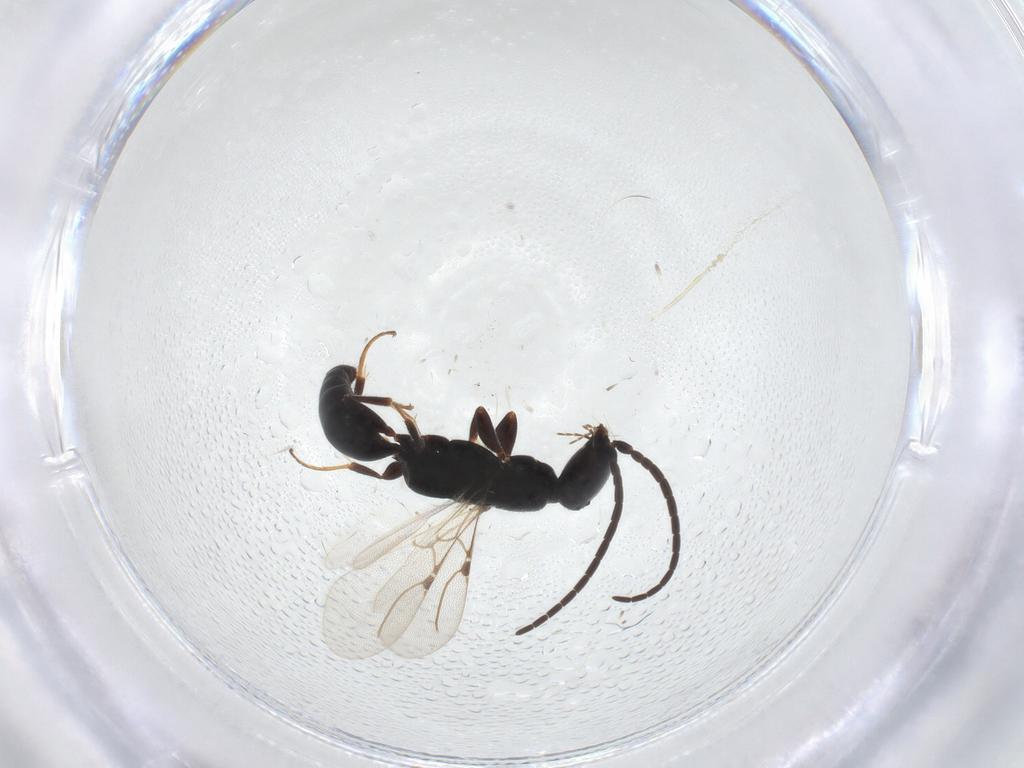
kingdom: Animalia
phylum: Arthropoda
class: Insecta
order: Hymenoptera
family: Bethylidae
